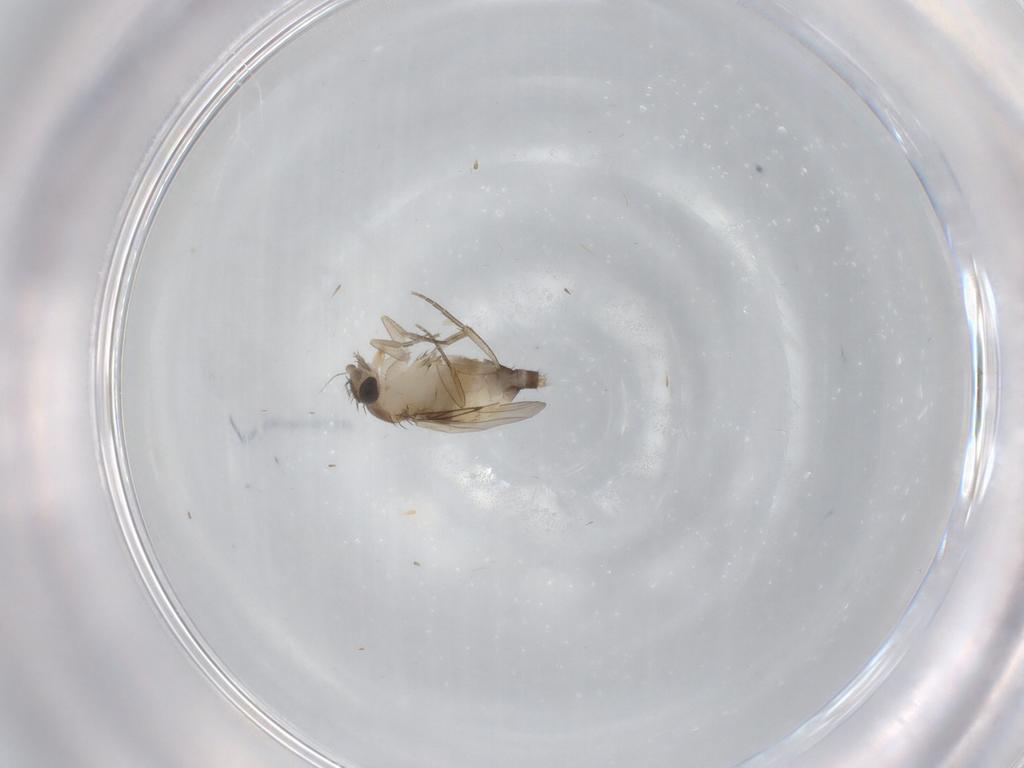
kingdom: Animalia
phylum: Arthropoda
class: Insecta
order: Diptera
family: Phoridae
